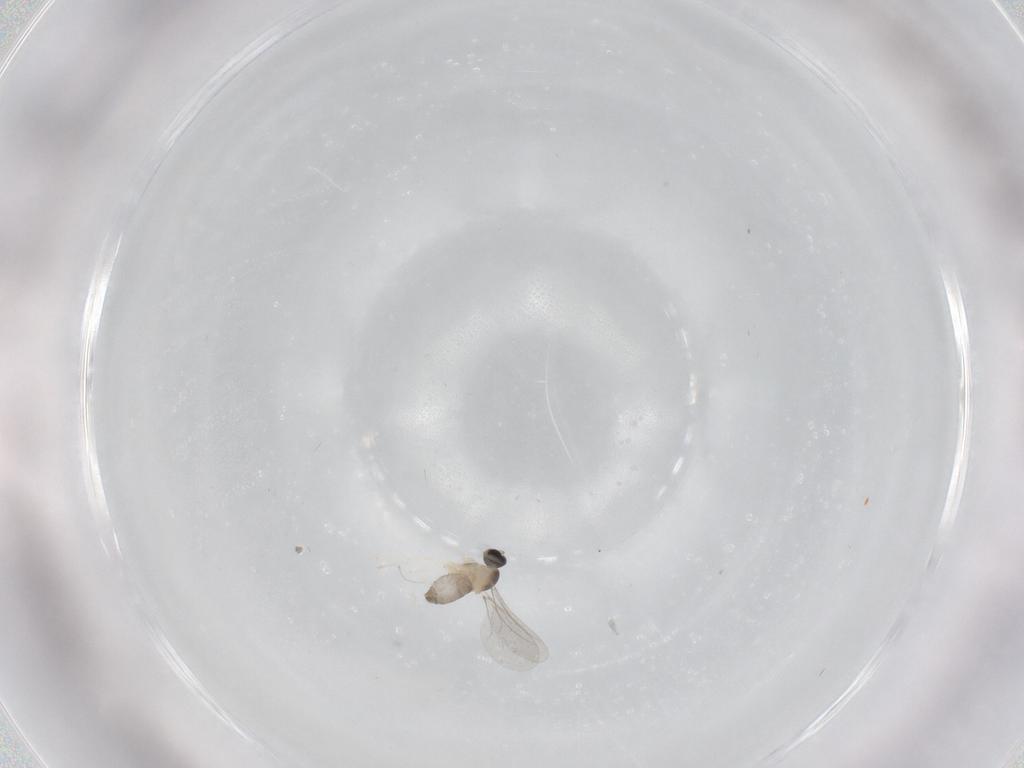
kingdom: Animalia
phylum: Arthropoda
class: Insecta
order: Diptera
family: Cecidomyiidae
